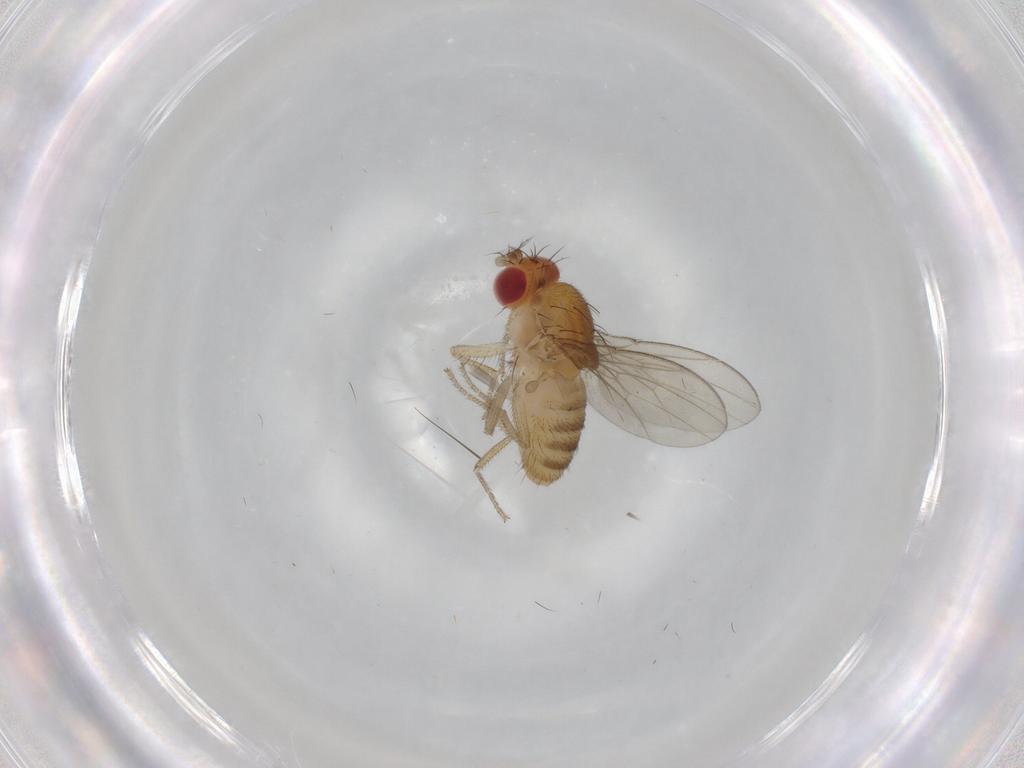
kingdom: Animalia
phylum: Arthropoda
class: Insecta
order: Diptera
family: Drosophilidae
